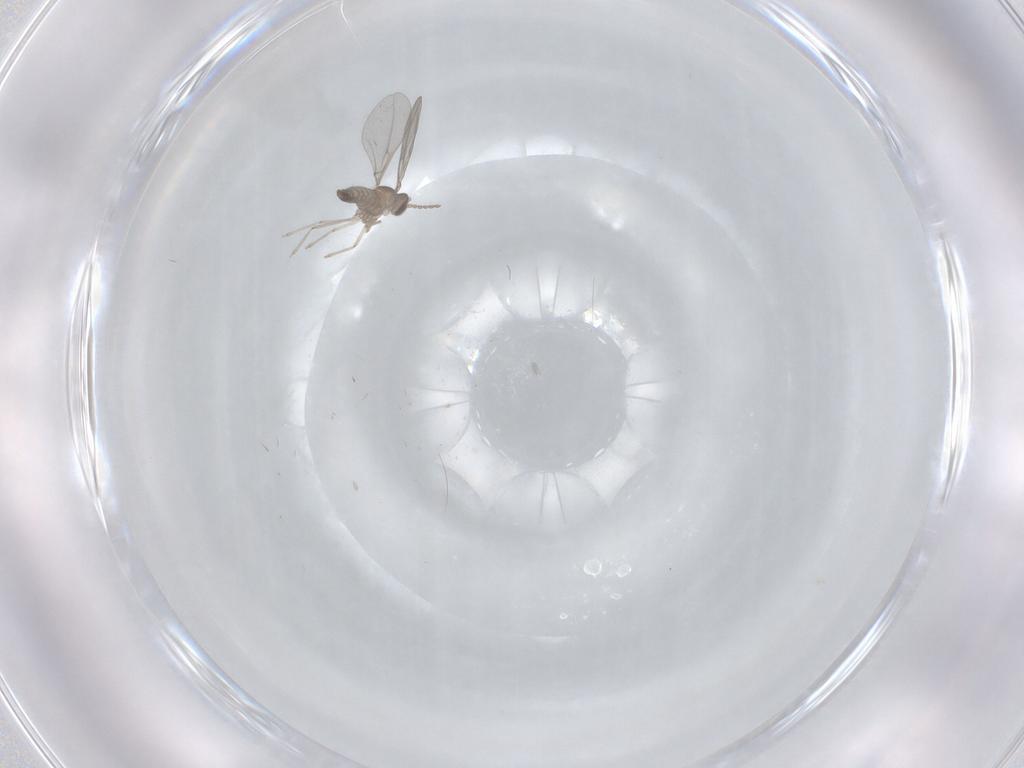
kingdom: Animalia
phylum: Arthropoda
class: Insecta
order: Diptera
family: Cecidomyiidae
